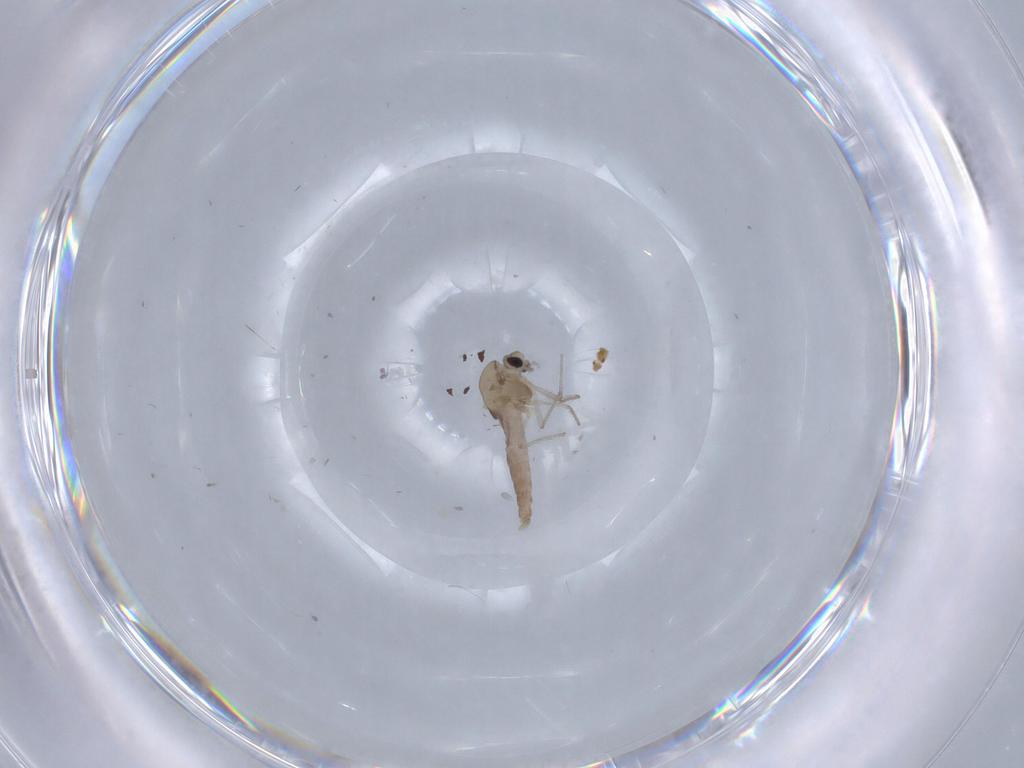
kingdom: Animalia
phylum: Arthropoda
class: Insecta
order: Diptera
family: Chironomidae
